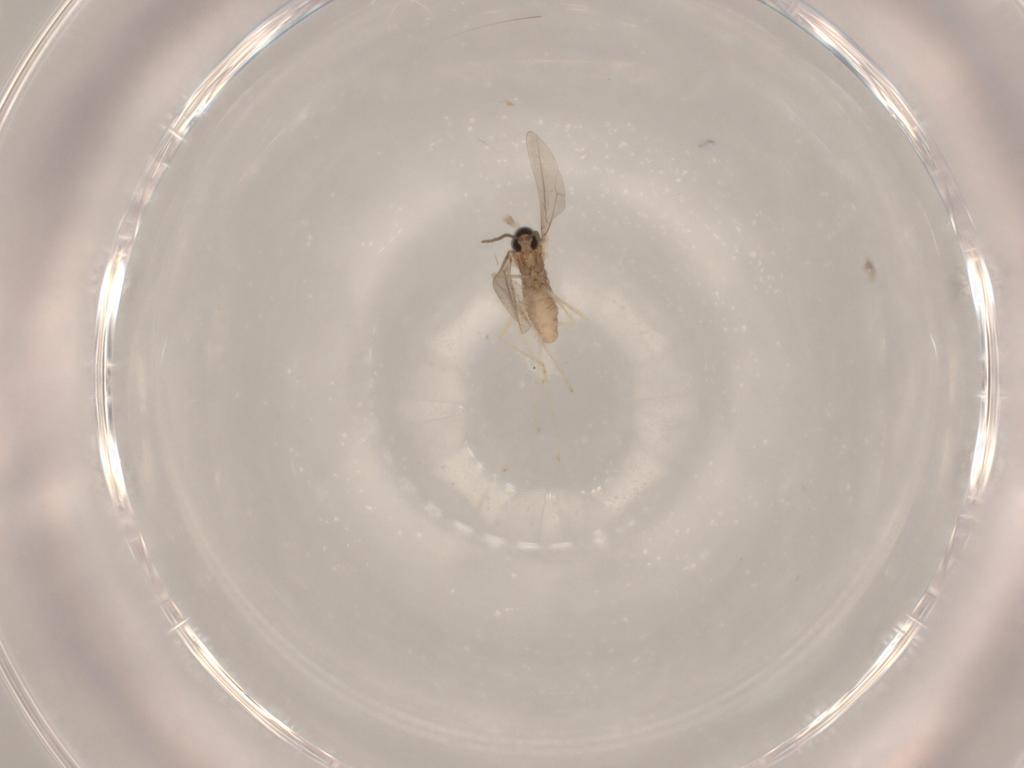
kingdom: Animalia
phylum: Arthropoda
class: Insecta
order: Diptera
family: Cecidomyiidae
